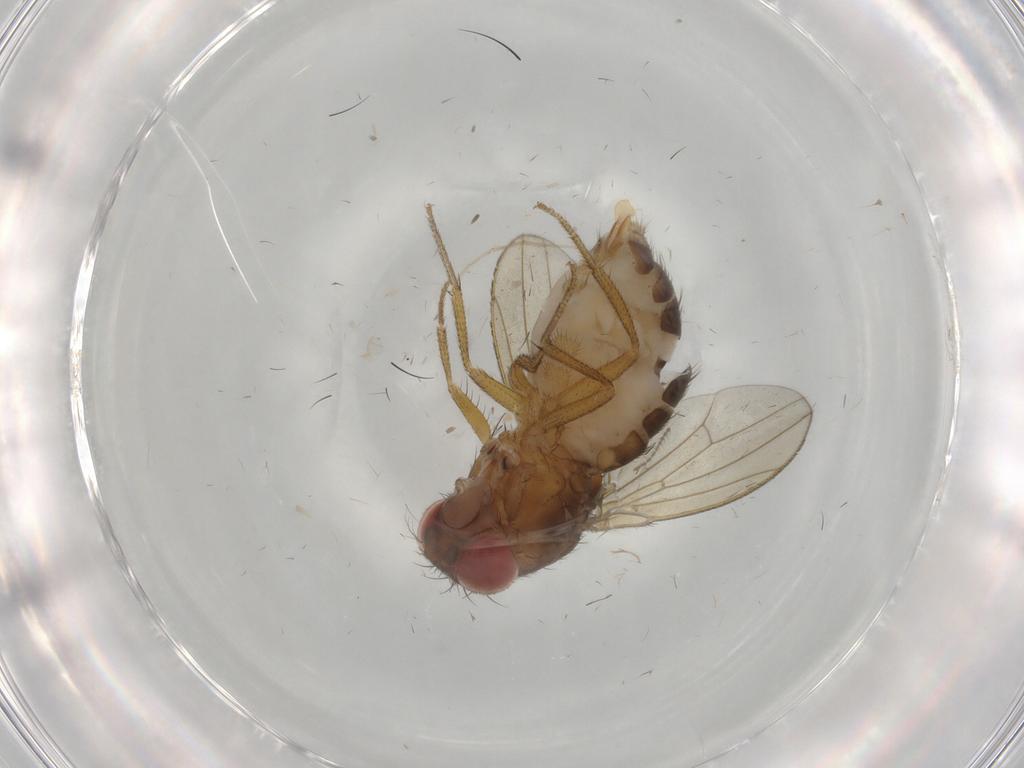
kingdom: Animalia
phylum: Arthropoda
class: Insecta
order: Diptera
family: Drosophilidae
